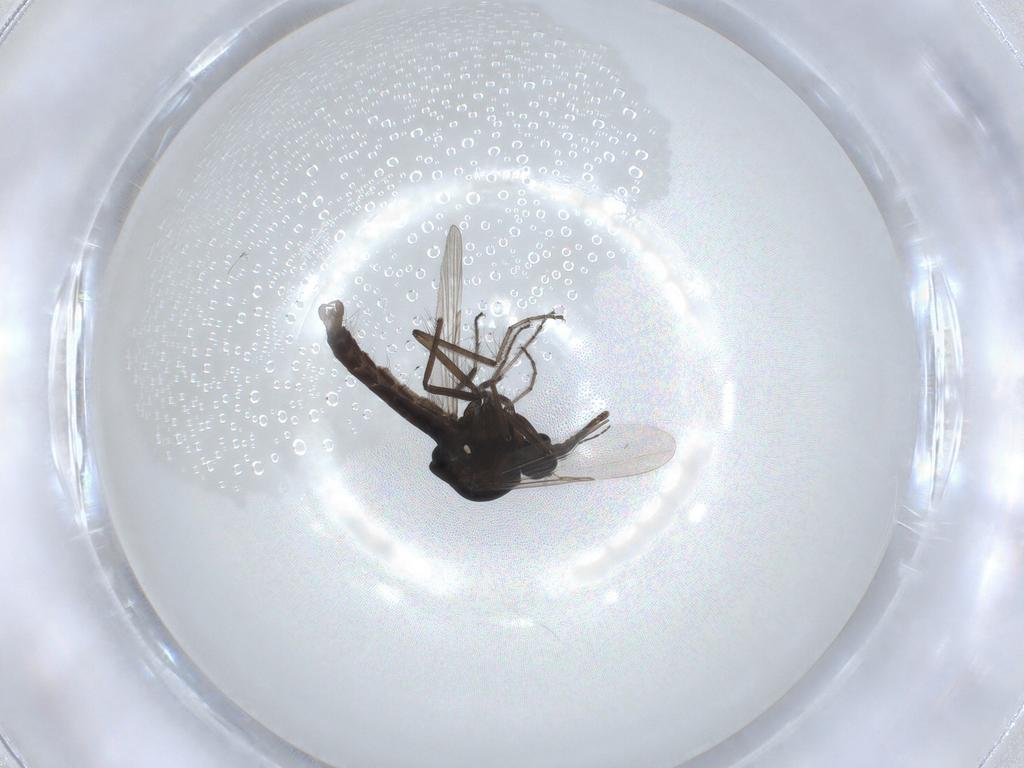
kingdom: Animalia
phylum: Arthropoda
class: Insecta
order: Diptera
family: Ceratopogonidae
